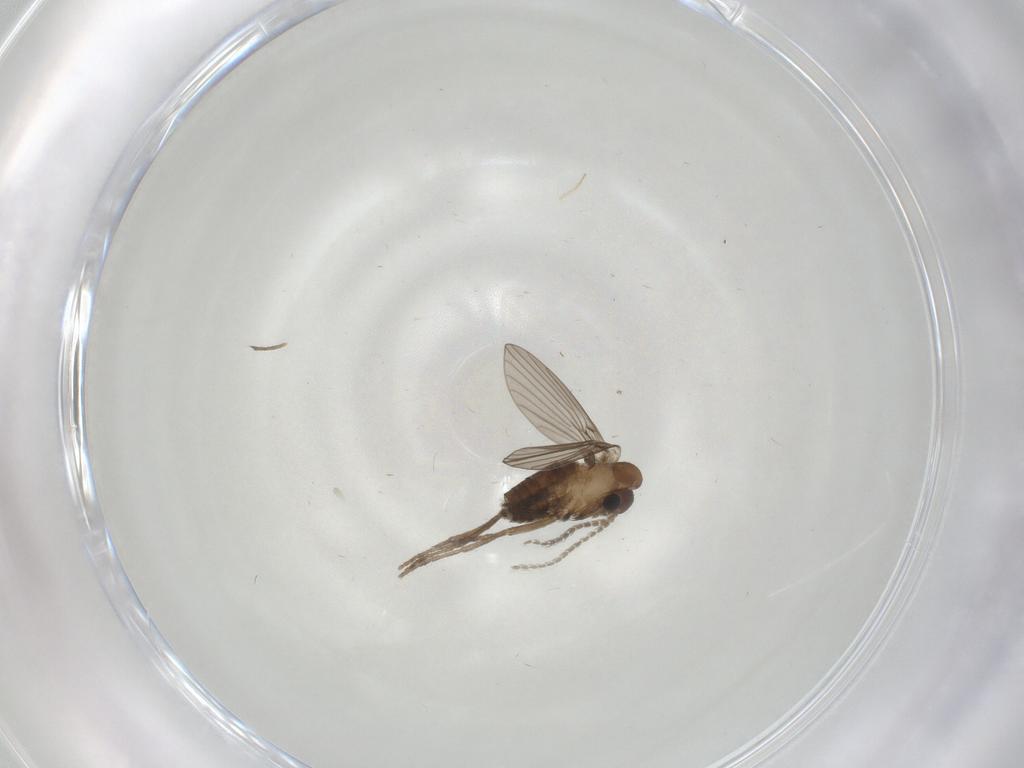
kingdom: Animalia
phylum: Arthropoda
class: Insecta
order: Diptera
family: Psychodidae
